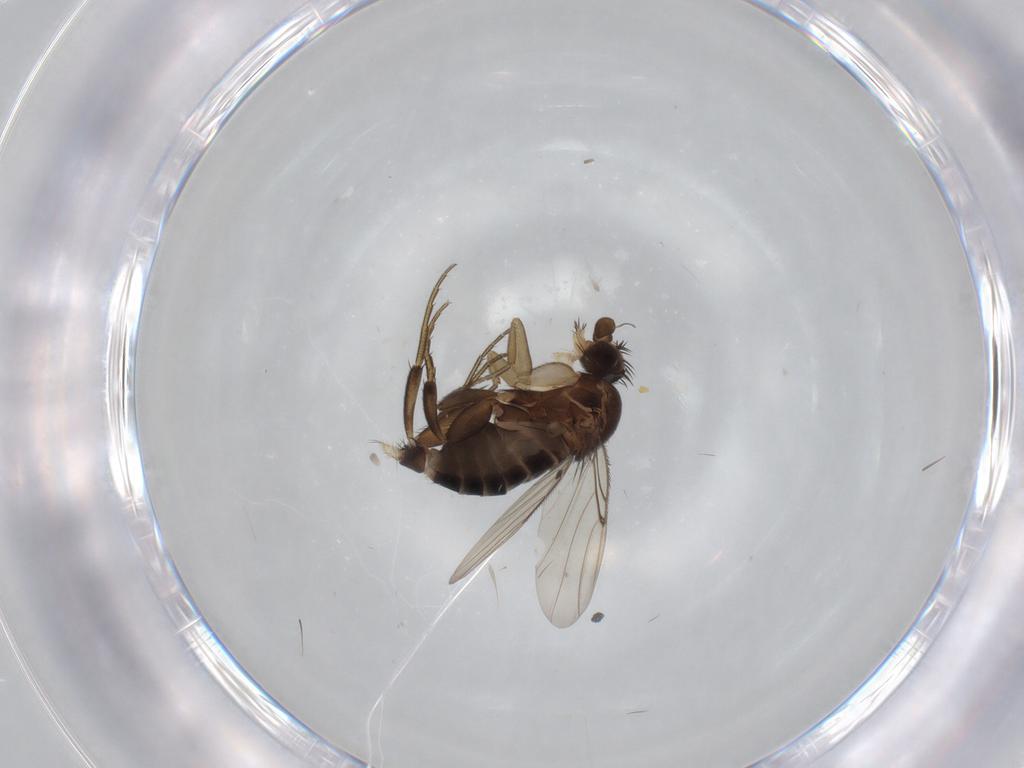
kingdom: Animalia
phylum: Arthropoda
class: Insecta
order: Diptera
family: Phoridae
